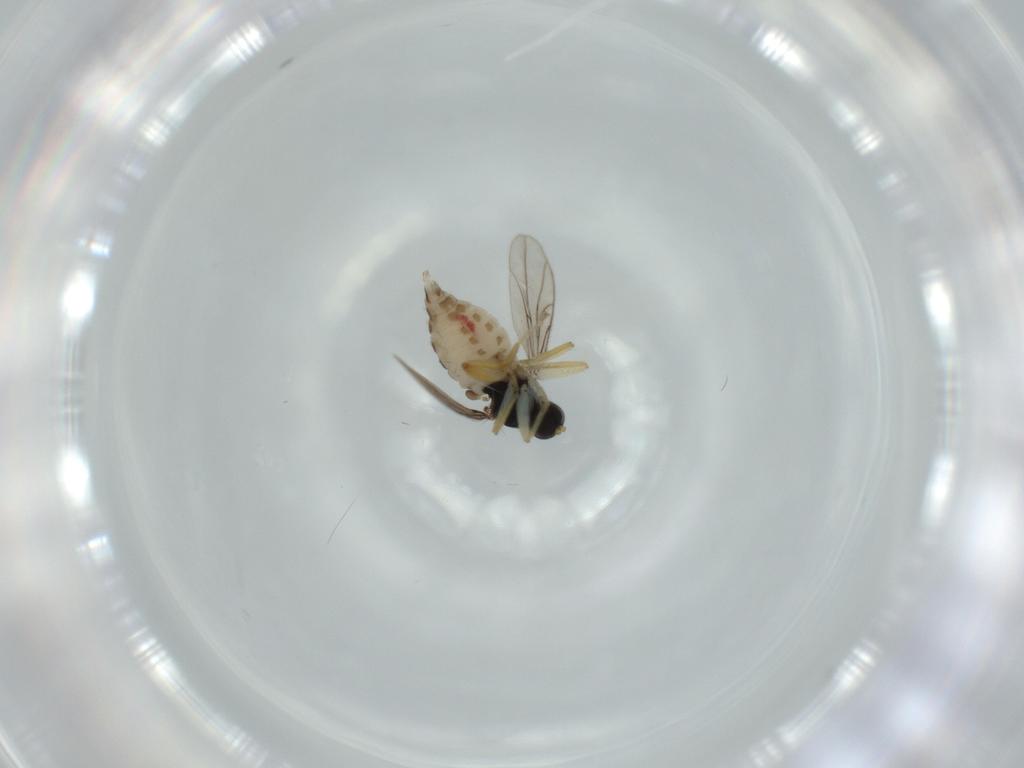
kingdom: Animalia
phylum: Arthropoda
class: Insecta
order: Diptera
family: Hybotidae
